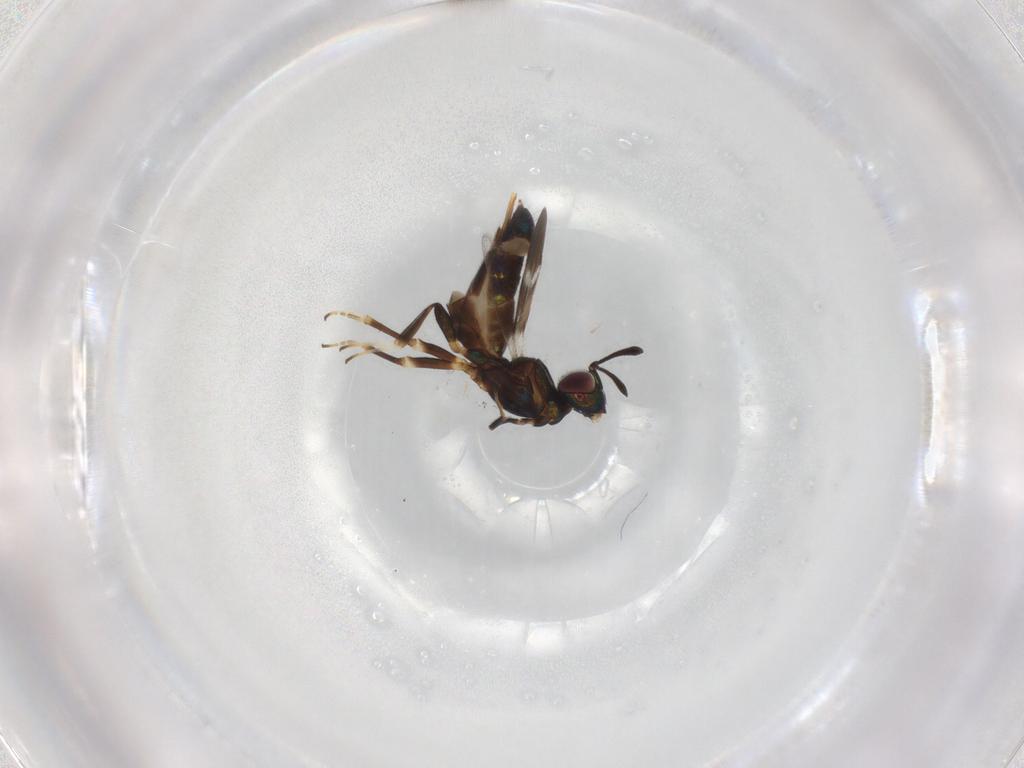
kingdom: Animalia
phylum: Arthropoda
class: Insecta
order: Hymenoptera
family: Eupelmidae
